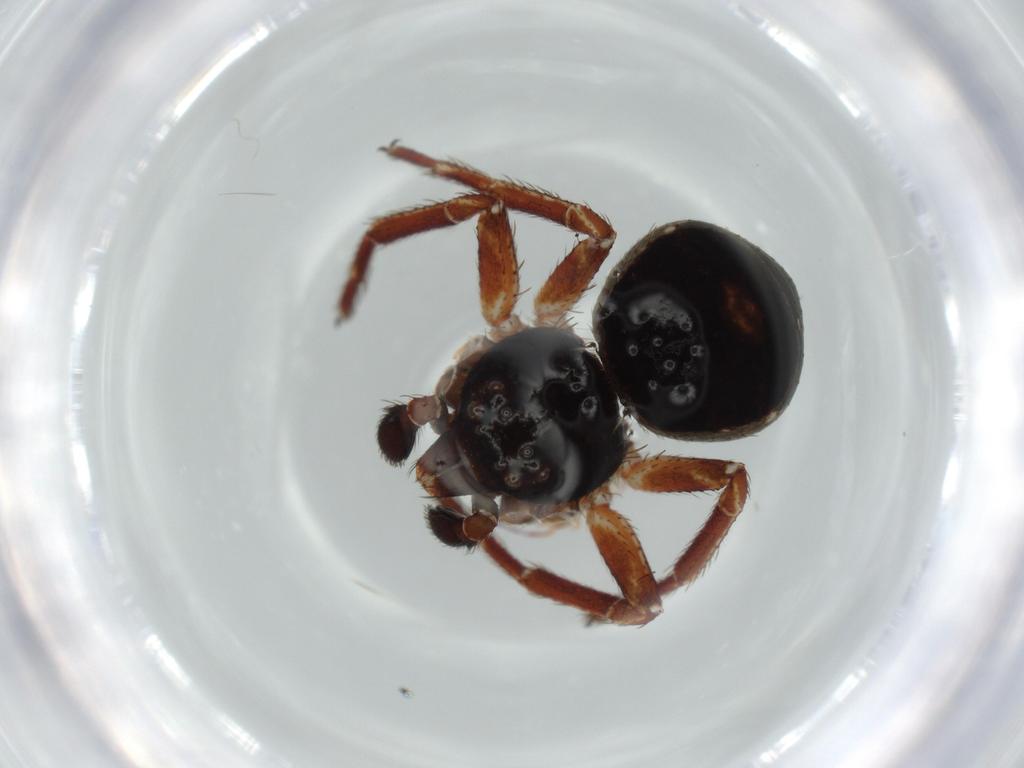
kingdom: Animalia
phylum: Arthropoda
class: Arachnida
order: Araneae
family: Thomisidae
